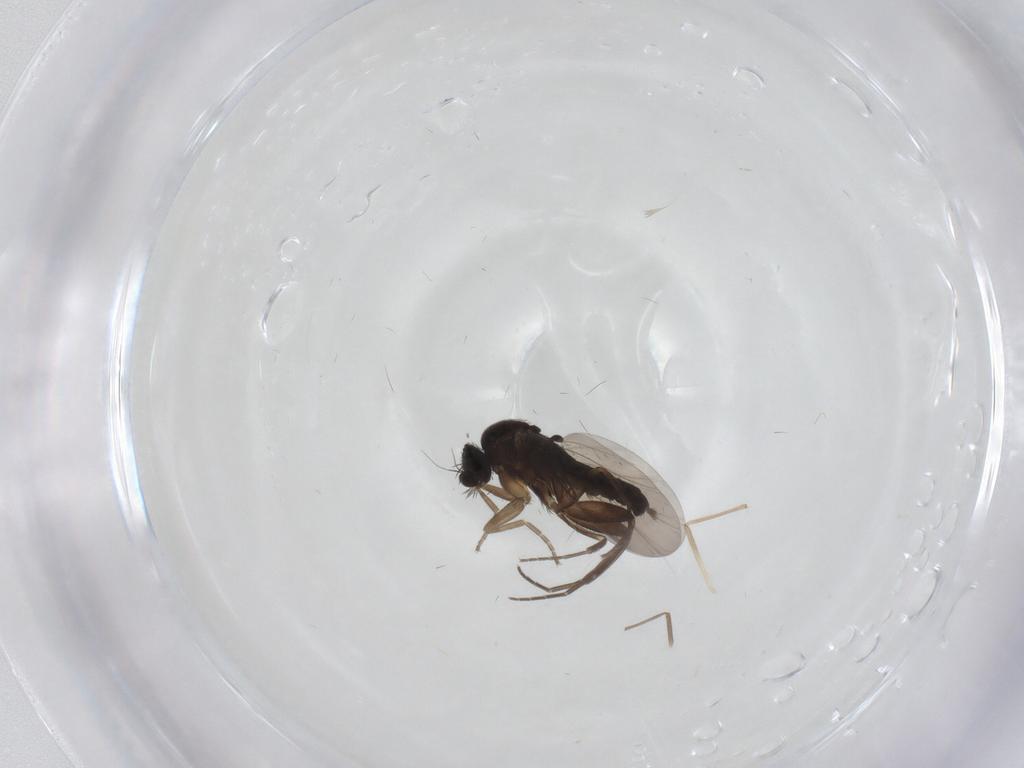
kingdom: Animalia
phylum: Arthropoda
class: Insecta
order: Diptera
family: Phoridae
